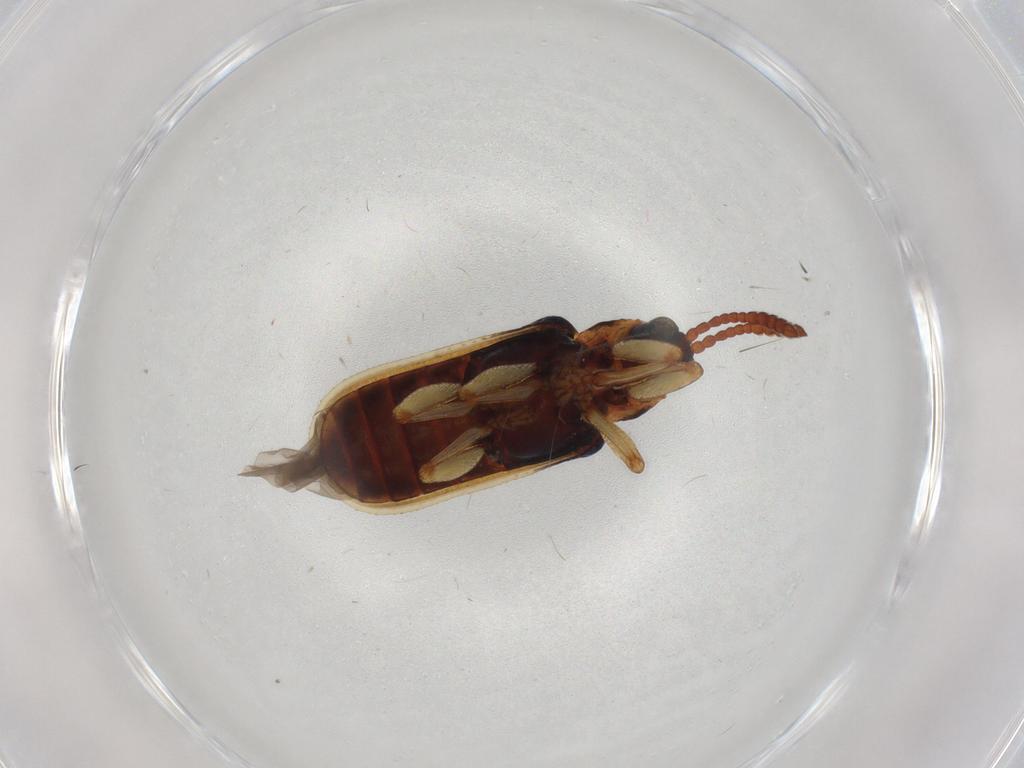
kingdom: Animalia
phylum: Arthropoda
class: Insecta
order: Coleoptera
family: Chrysomelidae
